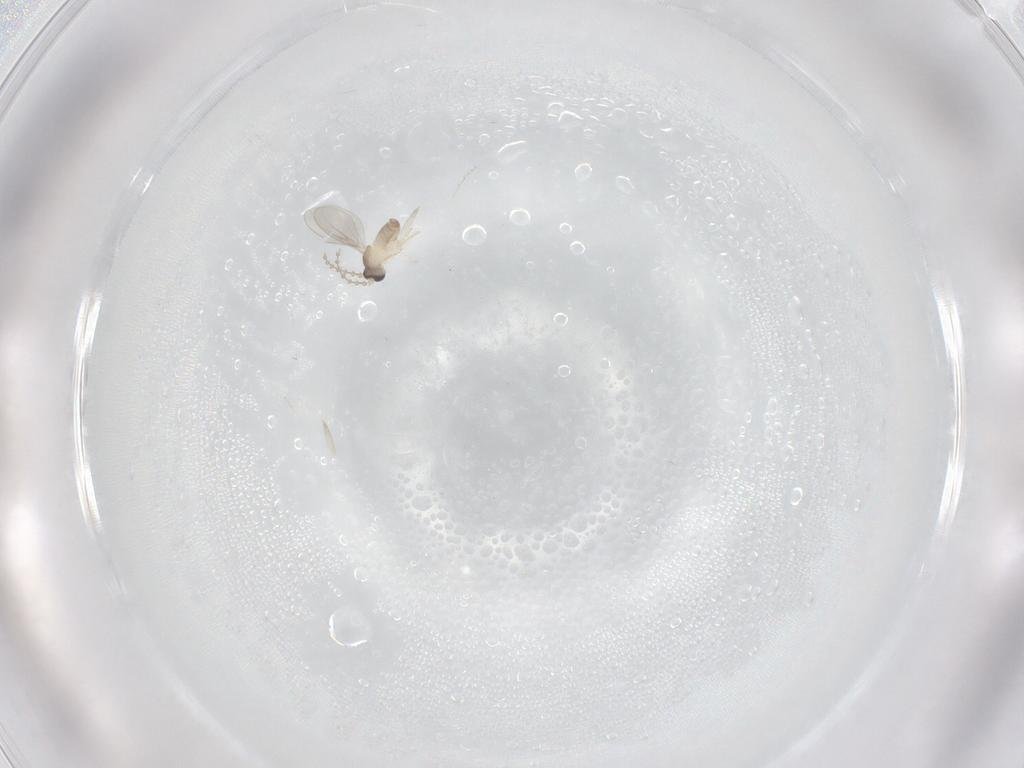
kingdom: Animalia
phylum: Arthropoda
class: Insecta
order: Diptera
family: Cecidomyiidae
